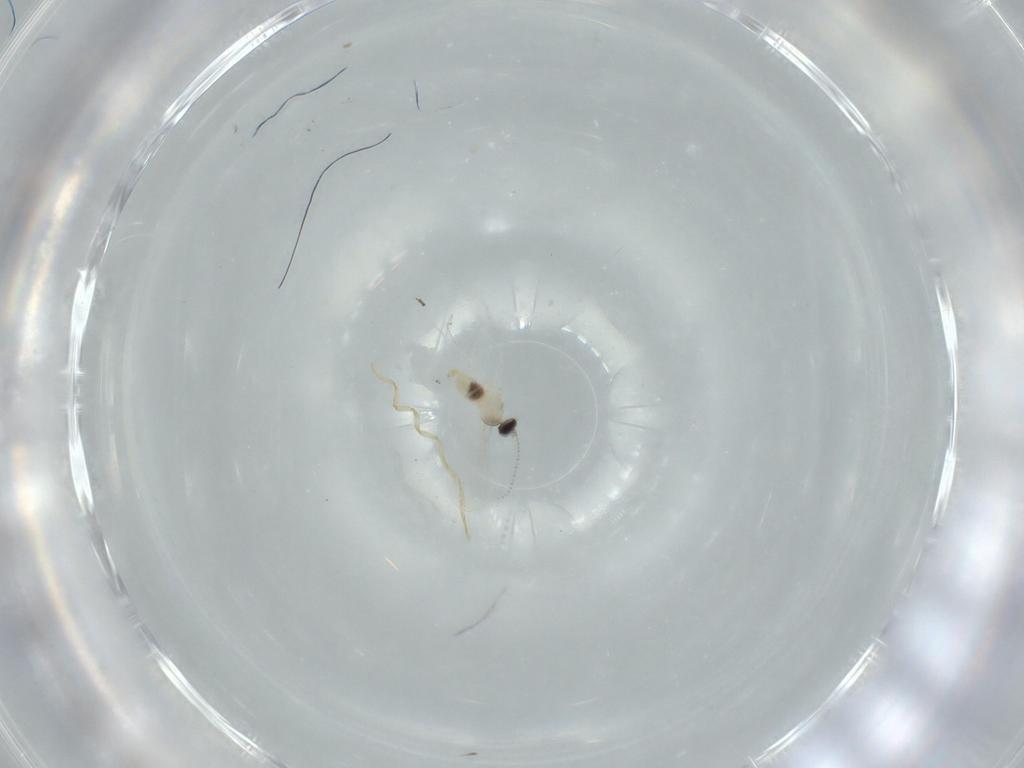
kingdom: Animalia
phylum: Arthropoda
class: Insecta
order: Diptera
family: Cecidomyiidae
